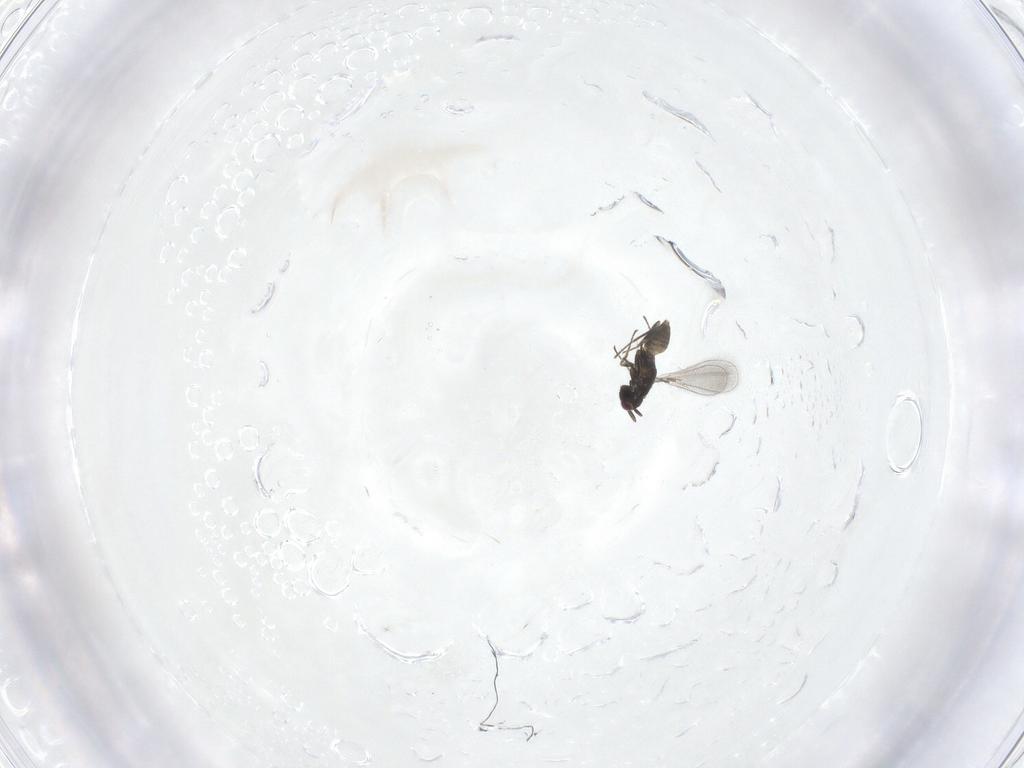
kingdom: Animalia
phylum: Arthropoda
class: Insecta
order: Hymenoptera
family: Mymaridae
